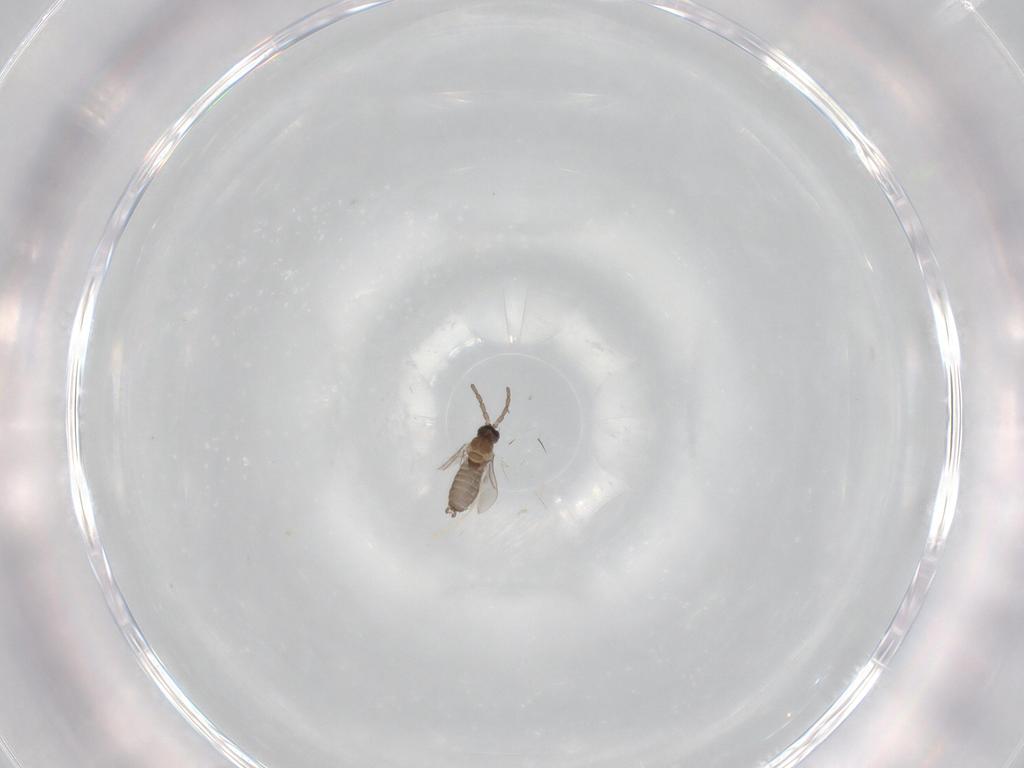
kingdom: Animalia
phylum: Arthropoda
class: Insecta
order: Diptera
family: Cecidomyiidae
